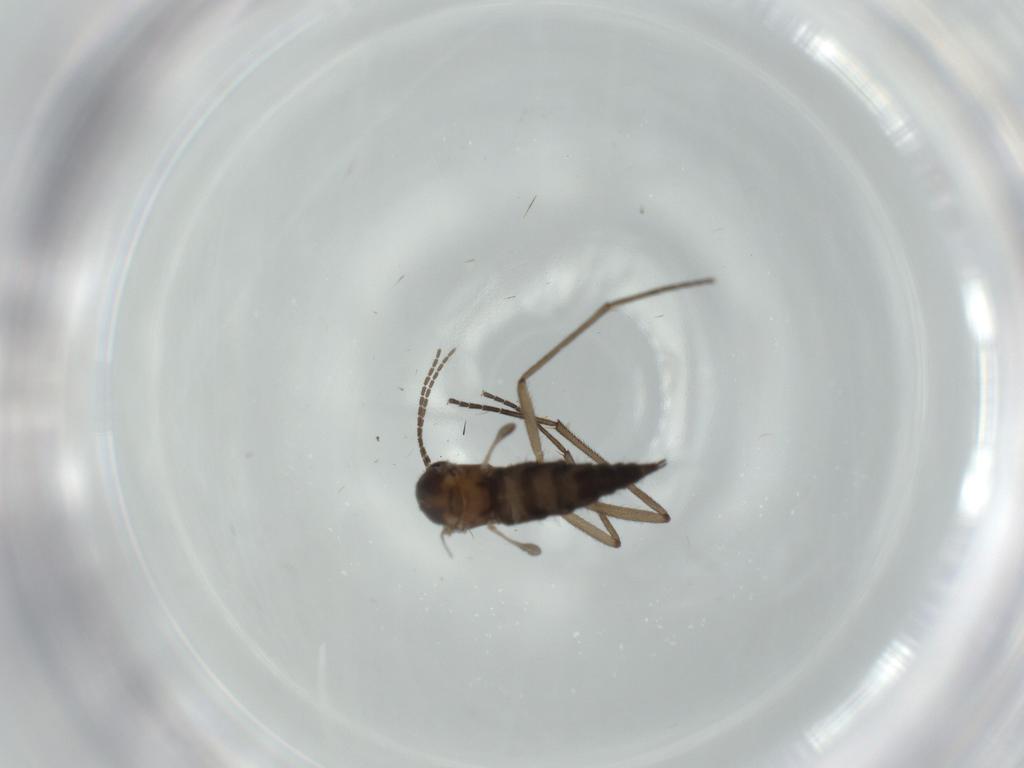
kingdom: Animalia
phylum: Arthropoda
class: Insecta
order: Diptera
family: Sciaridae
